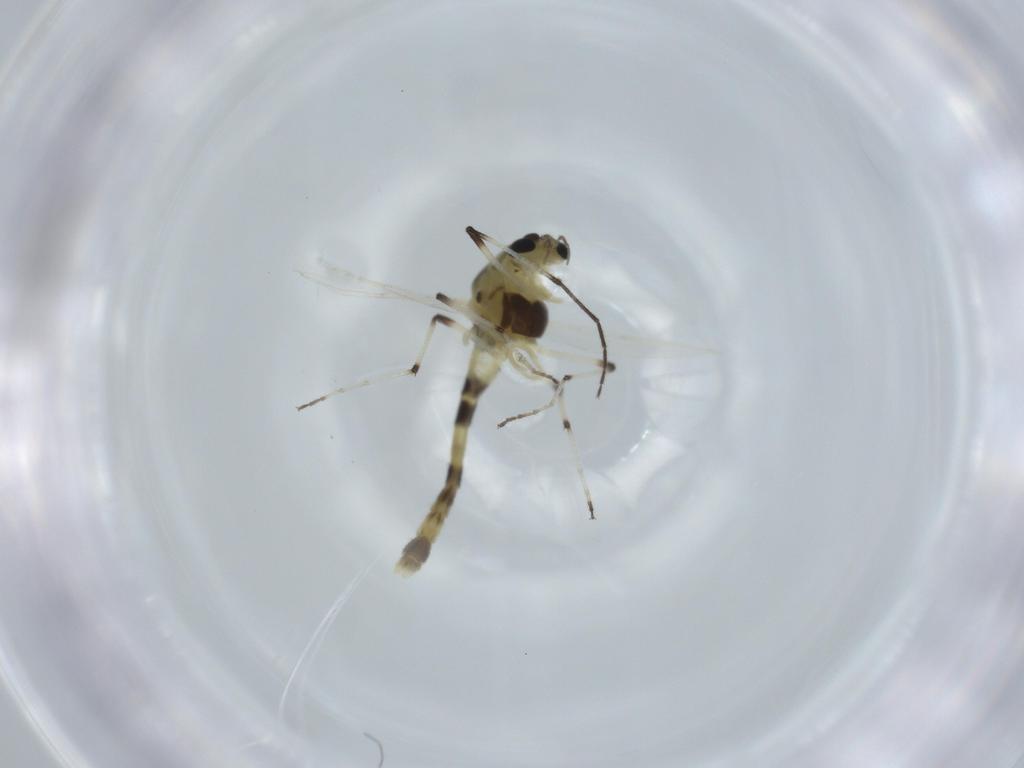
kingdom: Animalia
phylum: Arthropoda
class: Insecta
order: Diptera
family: Chironomidae
